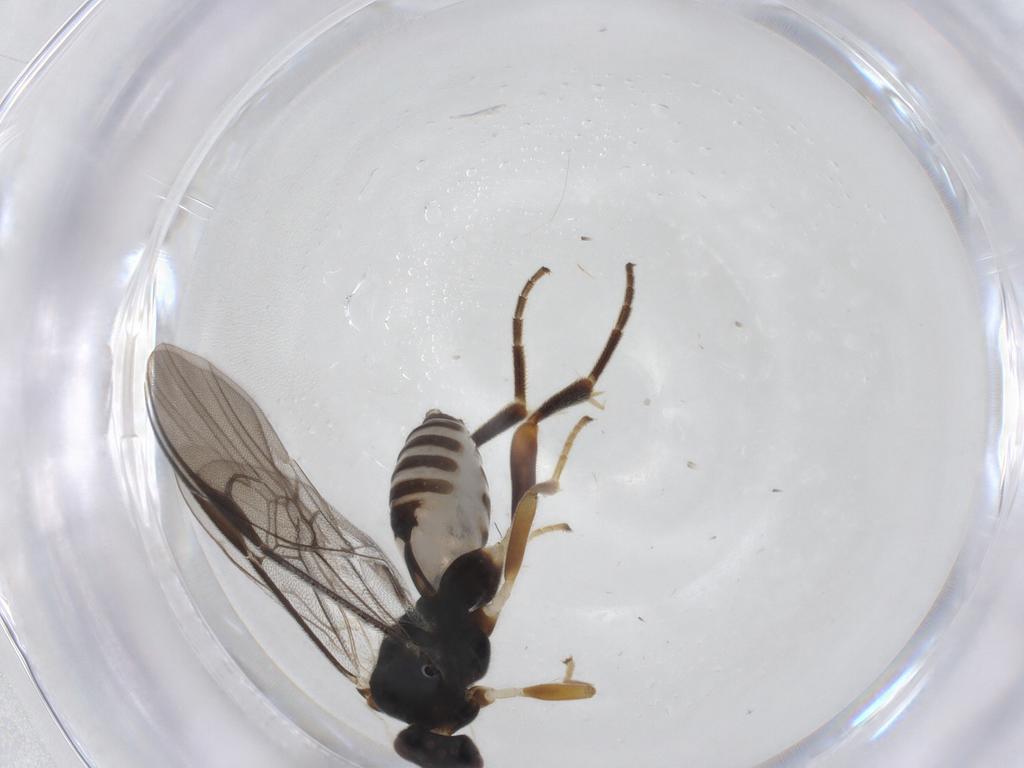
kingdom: Animalia
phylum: Arthropoda
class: Insecta
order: Hymenoptera
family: Braconidae
